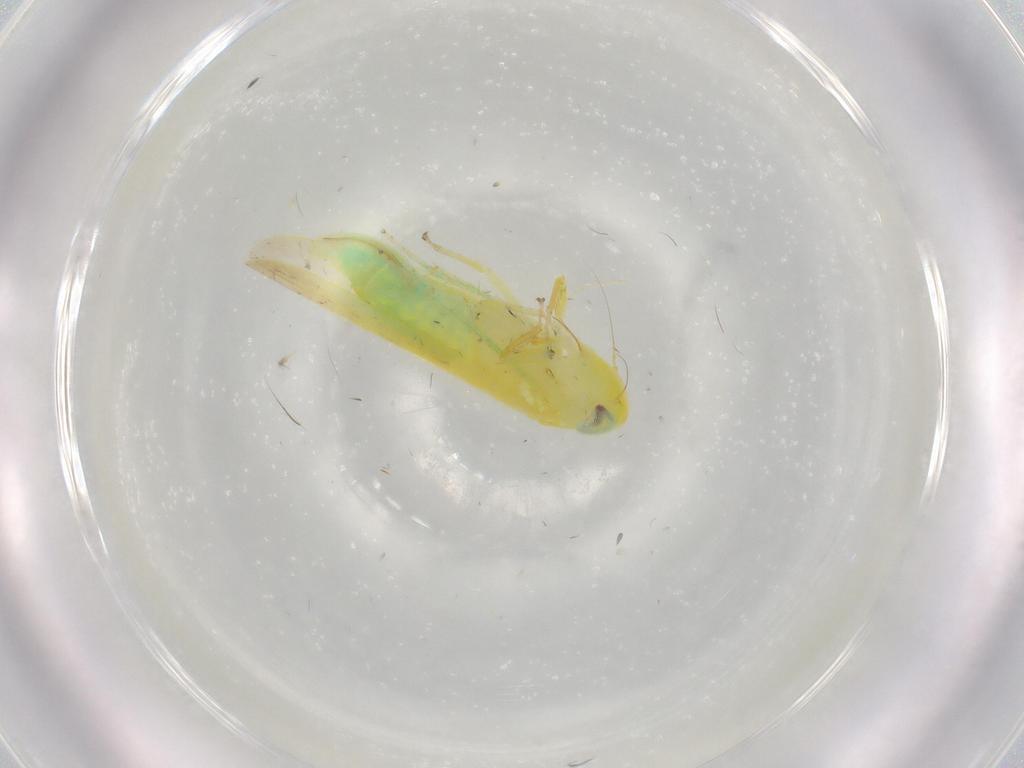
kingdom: Animalia
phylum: Arthropoda
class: Insecta
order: Hemiptera
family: Cicadellidae
